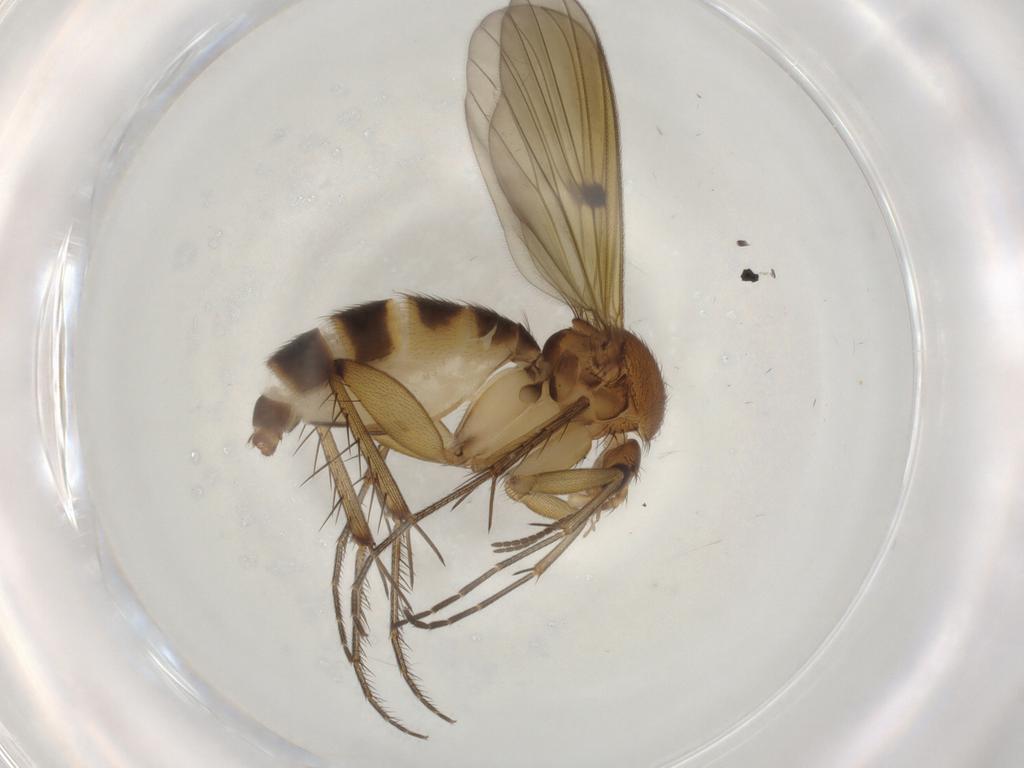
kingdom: Animalia
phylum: Arthropoda
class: Insecta
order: Diptera
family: Mycetophilidae
